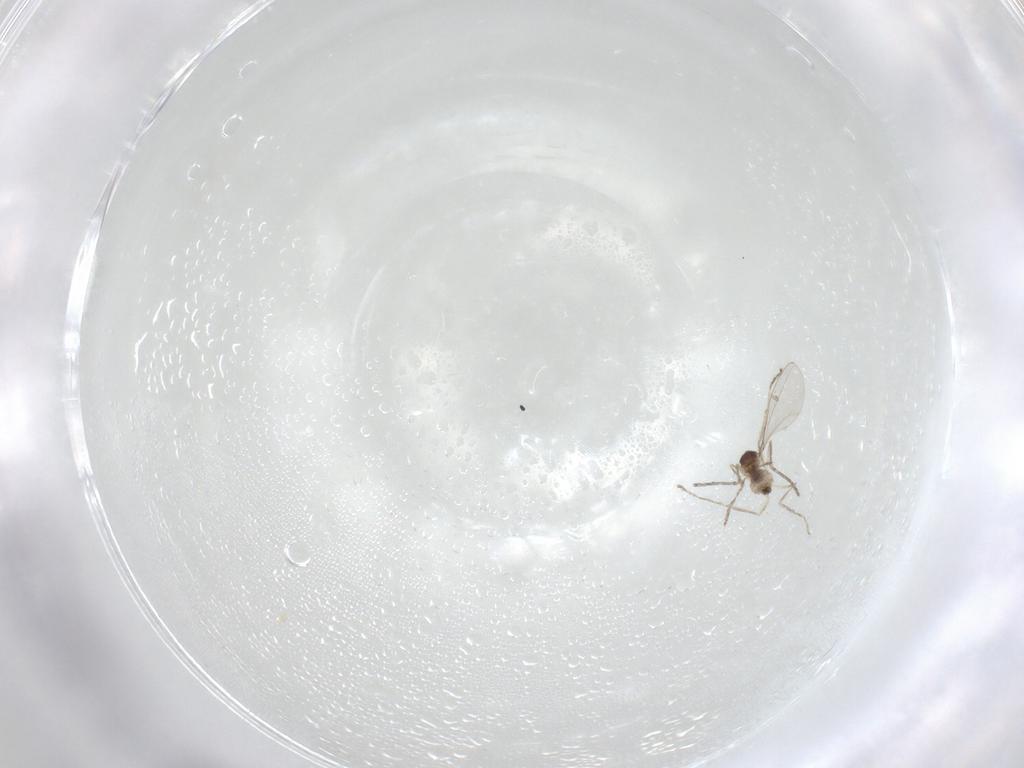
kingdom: Animalia
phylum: Arthropoda
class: Insecta
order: Diptera
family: Cecidomyiidae
